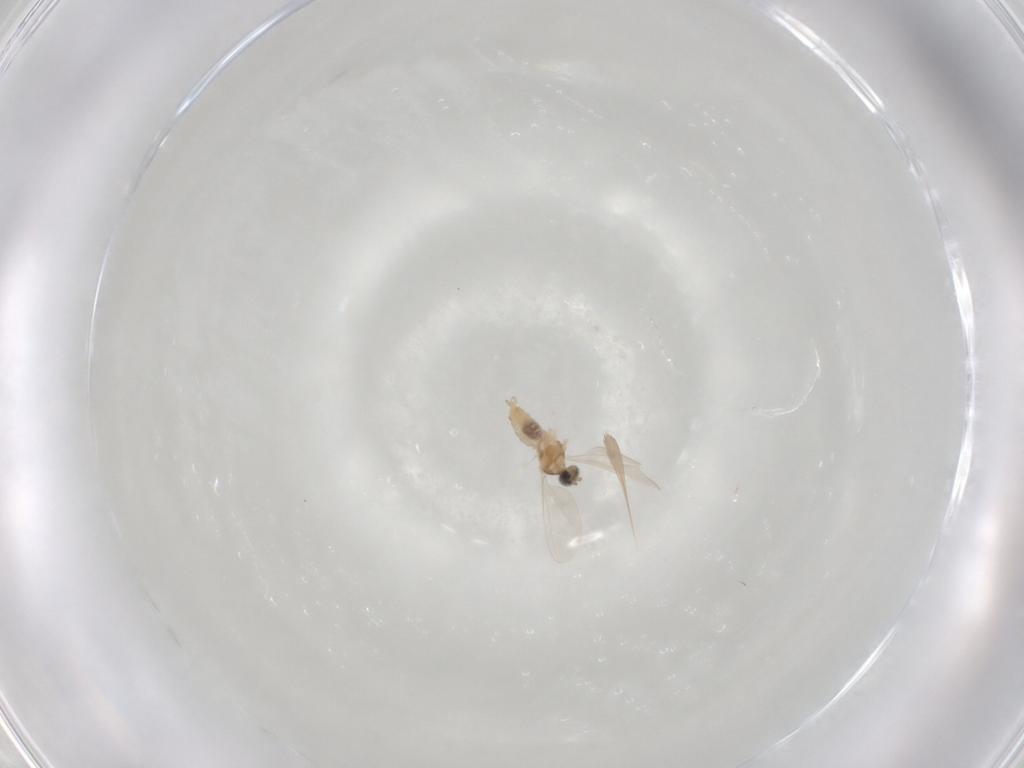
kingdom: Animalia
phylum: Arthropoda
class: Insecta
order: Diptera
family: Cecidomyiidae
